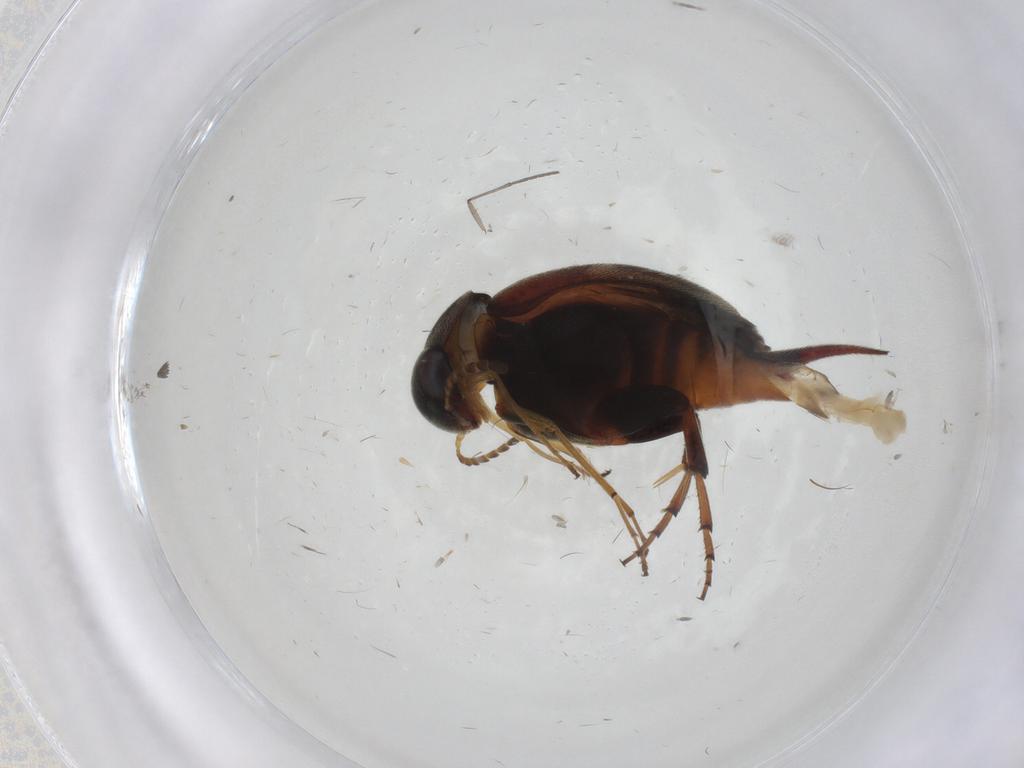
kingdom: Animalia
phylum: Arthropoda
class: Insecta
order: Coleoptera
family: Mordellidae
